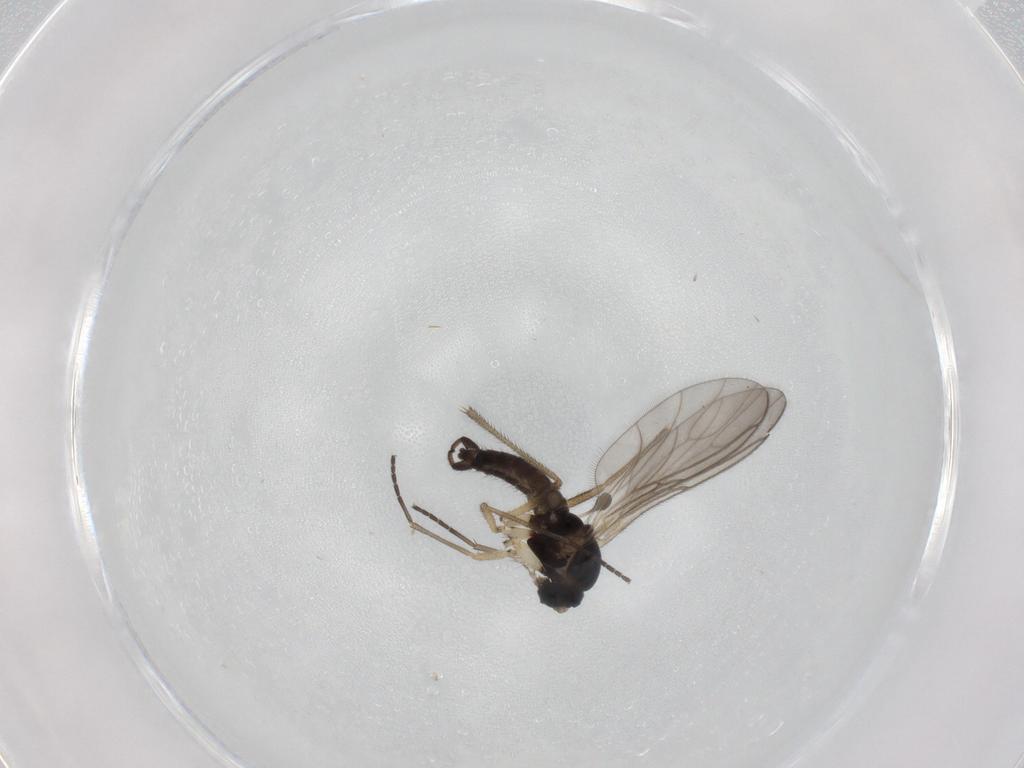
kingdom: Animalia
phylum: Arthropoda
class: Insecta
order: Diptera
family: Sciaridae
